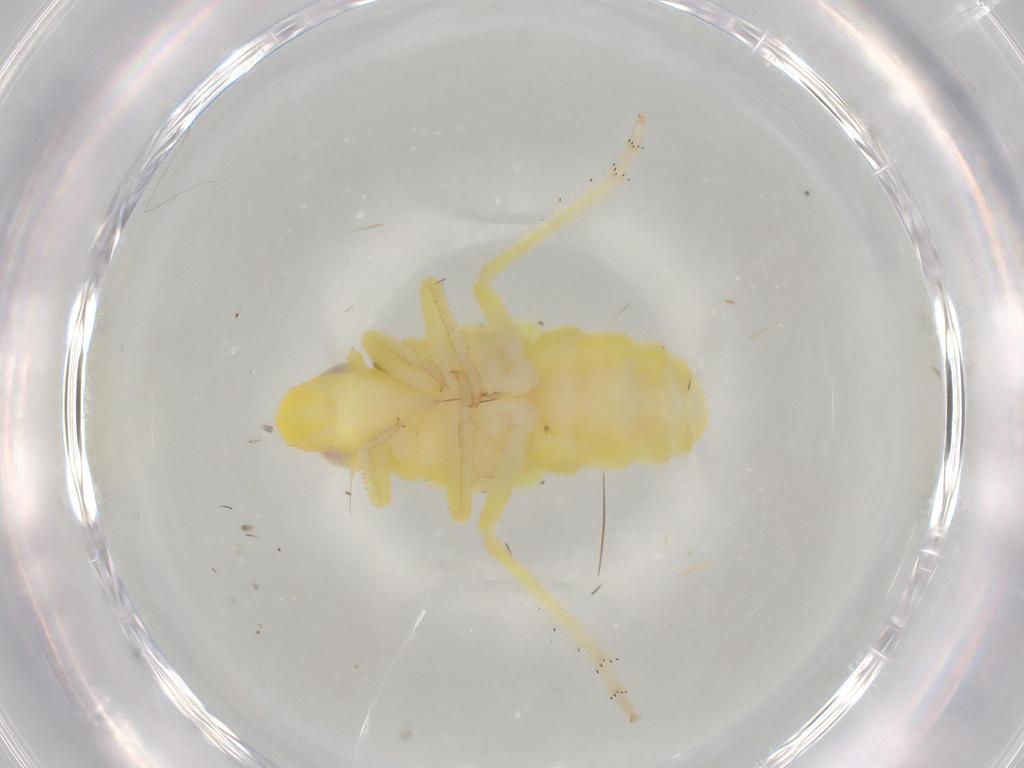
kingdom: Animalia
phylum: Arthropoda
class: Insecta
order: Hemiptera
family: Tropiduchidae
